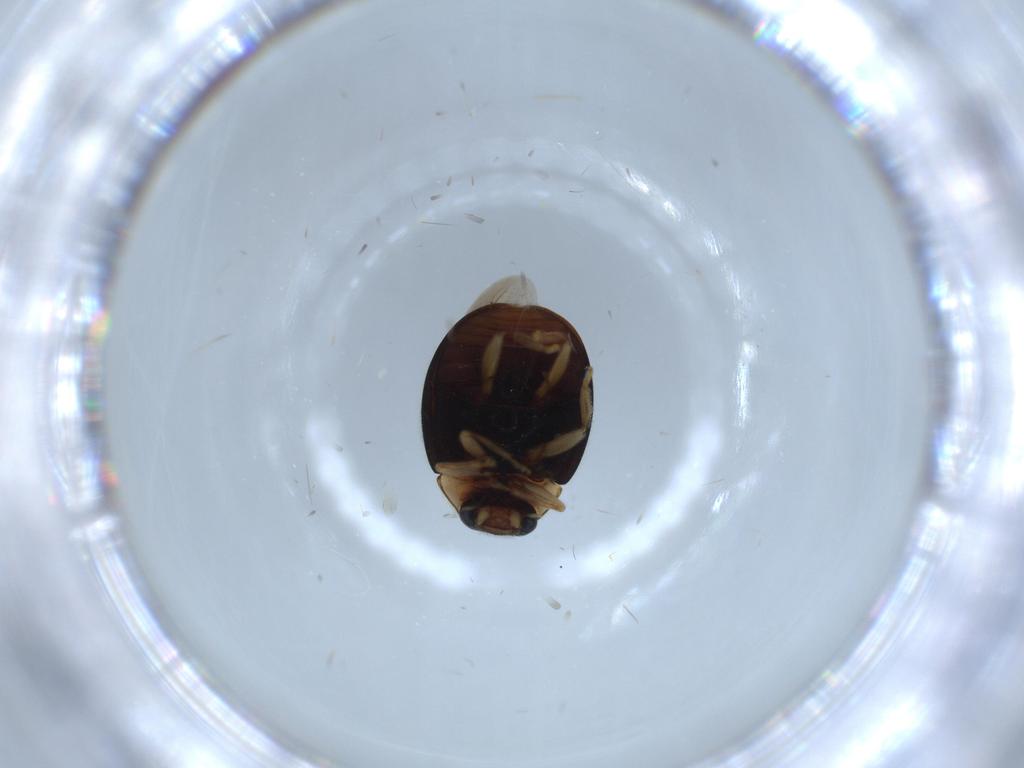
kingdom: Animalia
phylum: Arthropoda
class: Insecta
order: Coleoptera
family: Curculionidae
